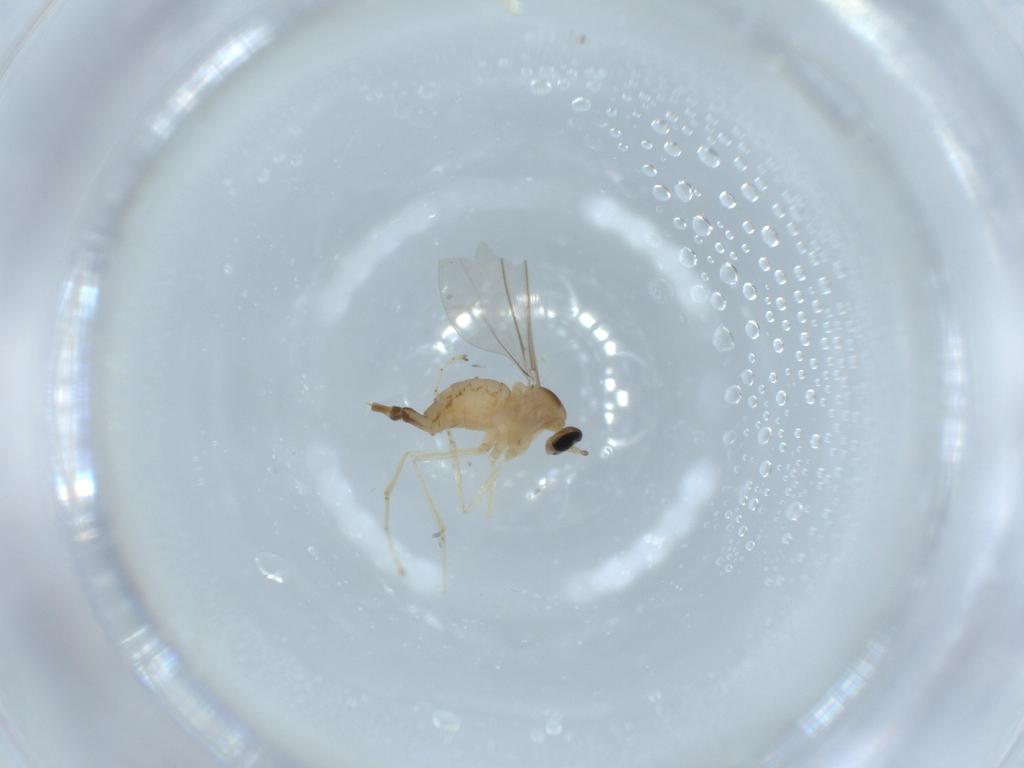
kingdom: Animalia
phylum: Arthropoda
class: Insecta
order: Diptera
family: Cecidomyiidae
